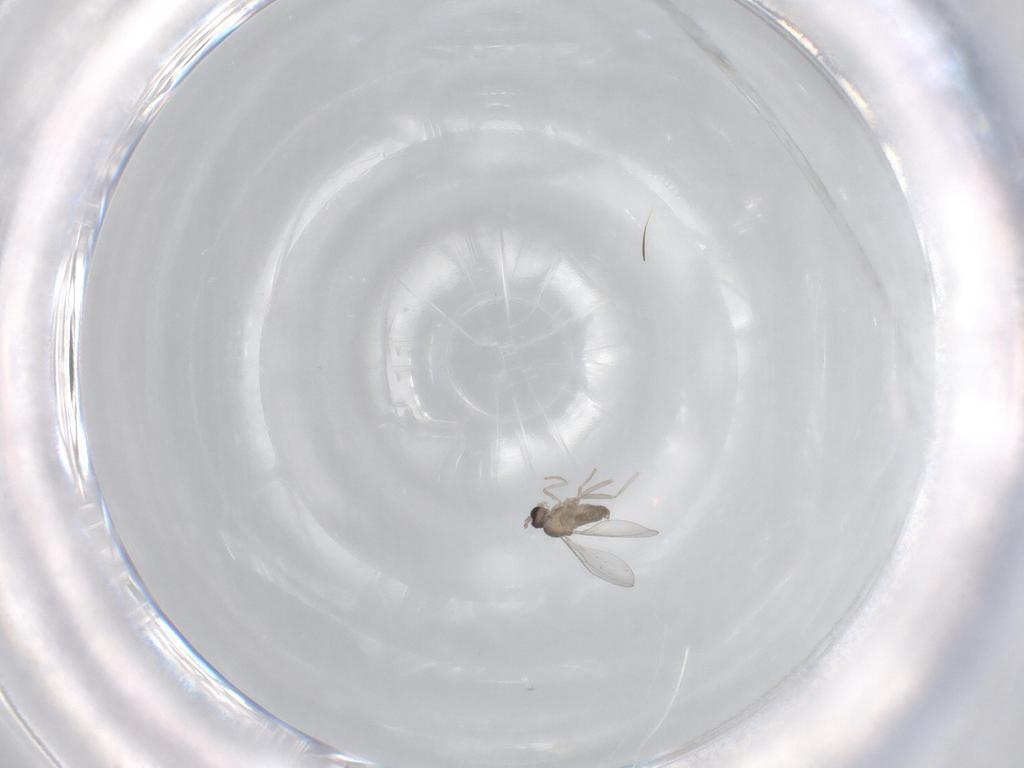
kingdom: Animalia
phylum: Arthropoda
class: Insecta
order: Diptera
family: Cecidomyiidae
